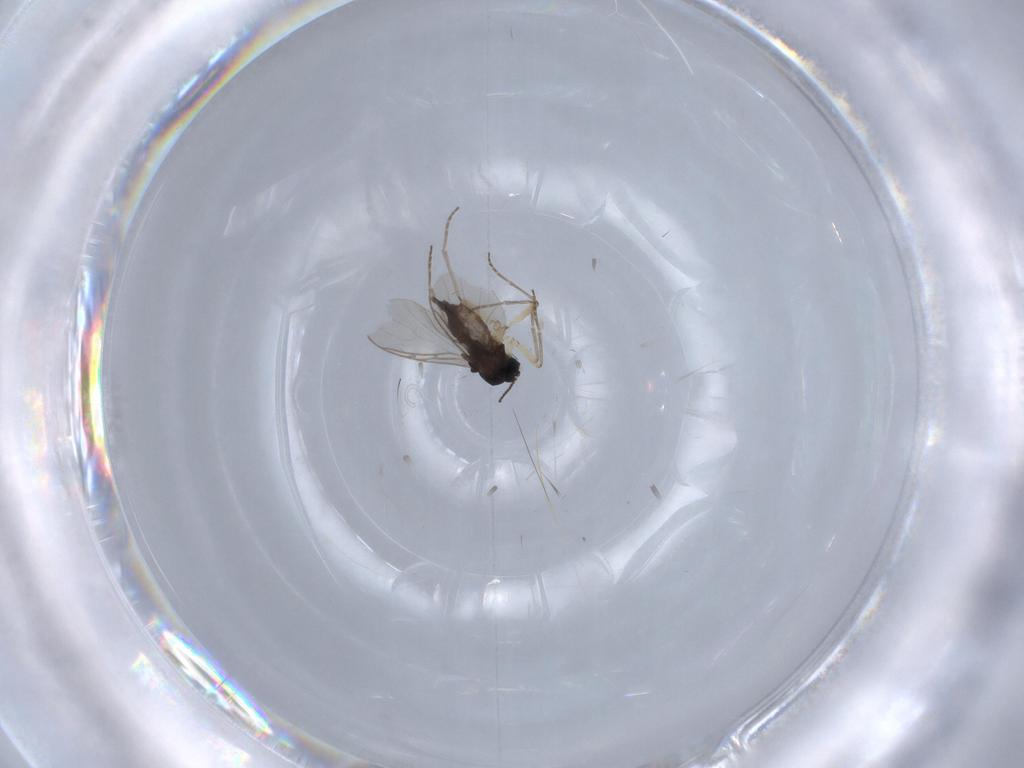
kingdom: Animalia
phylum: Arthropoda
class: Insecta
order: Diptera
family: Sciaridae
